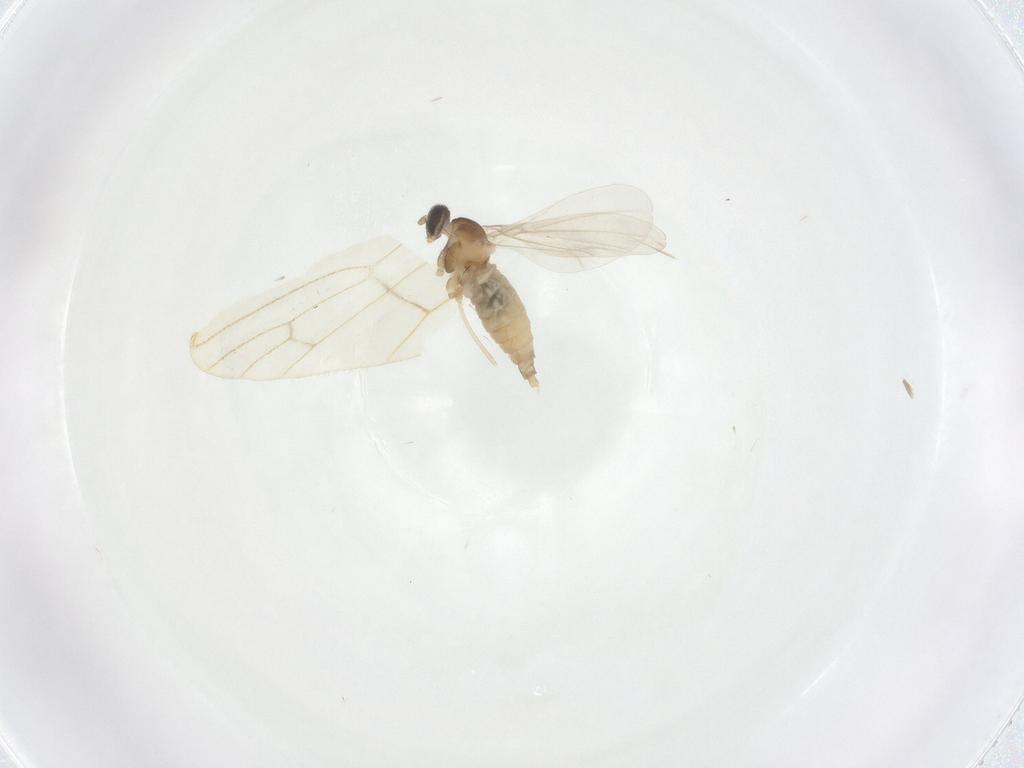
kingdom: Animalia
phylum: Arthropoda
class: Insecta
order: Diptera
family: Cecidomyiidae
